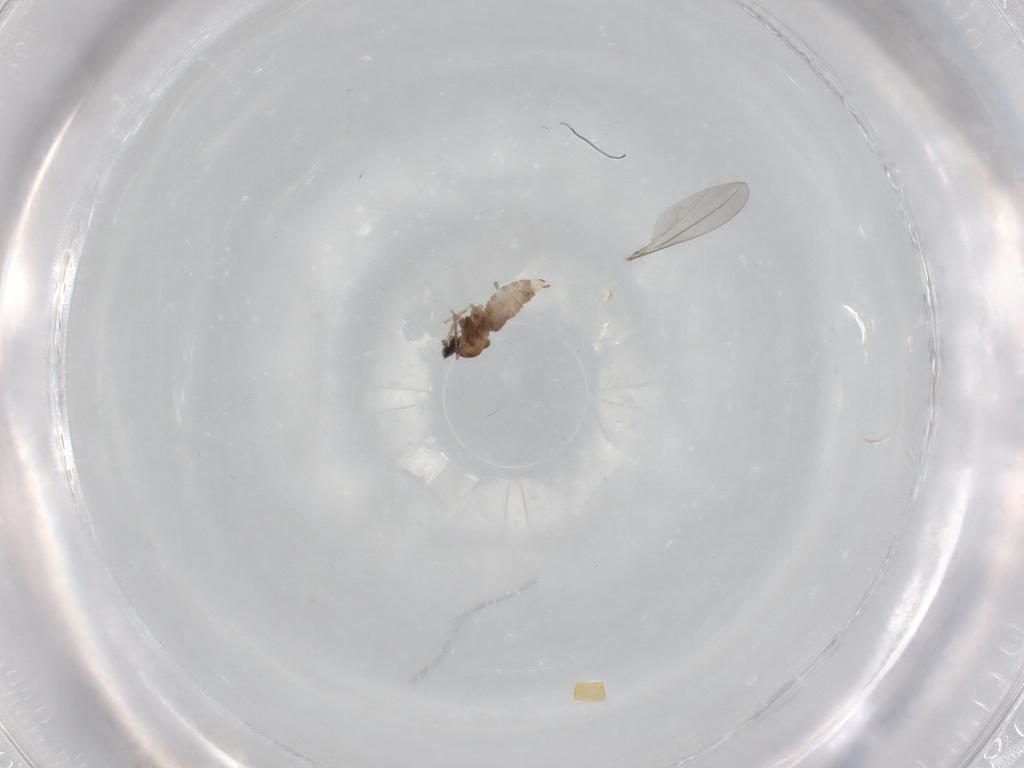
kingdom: Animalia
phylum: Arthropoda
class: Insecta
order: Diptera
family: Cecidomyiidae
